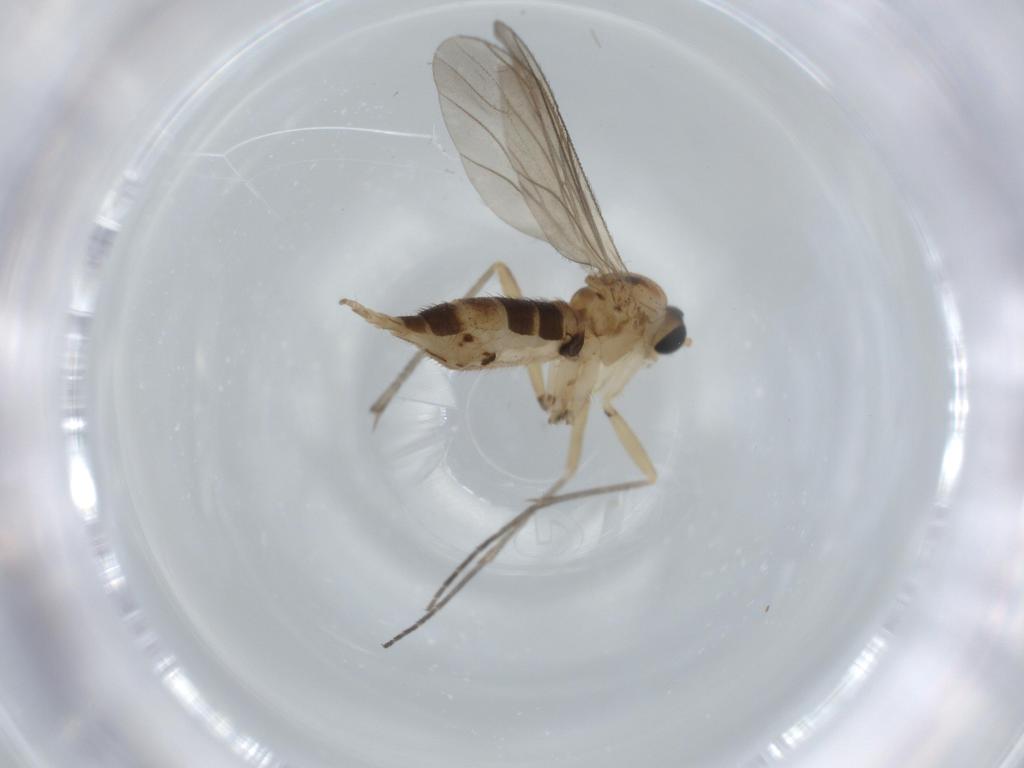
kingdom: Animalia
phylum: Arthropoda
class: Insecta
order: Diptera
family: Sciaridae
